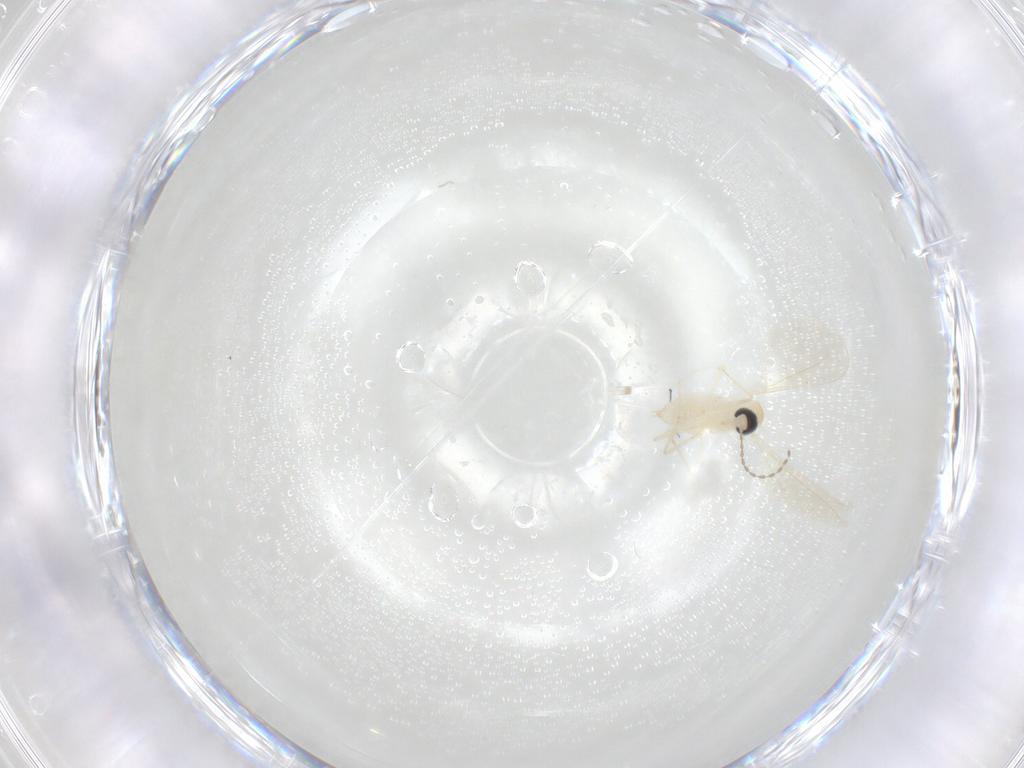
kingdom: Animalia
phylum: Arthropoda
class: Insecta
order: Diptera
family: Cecidomyiidae
